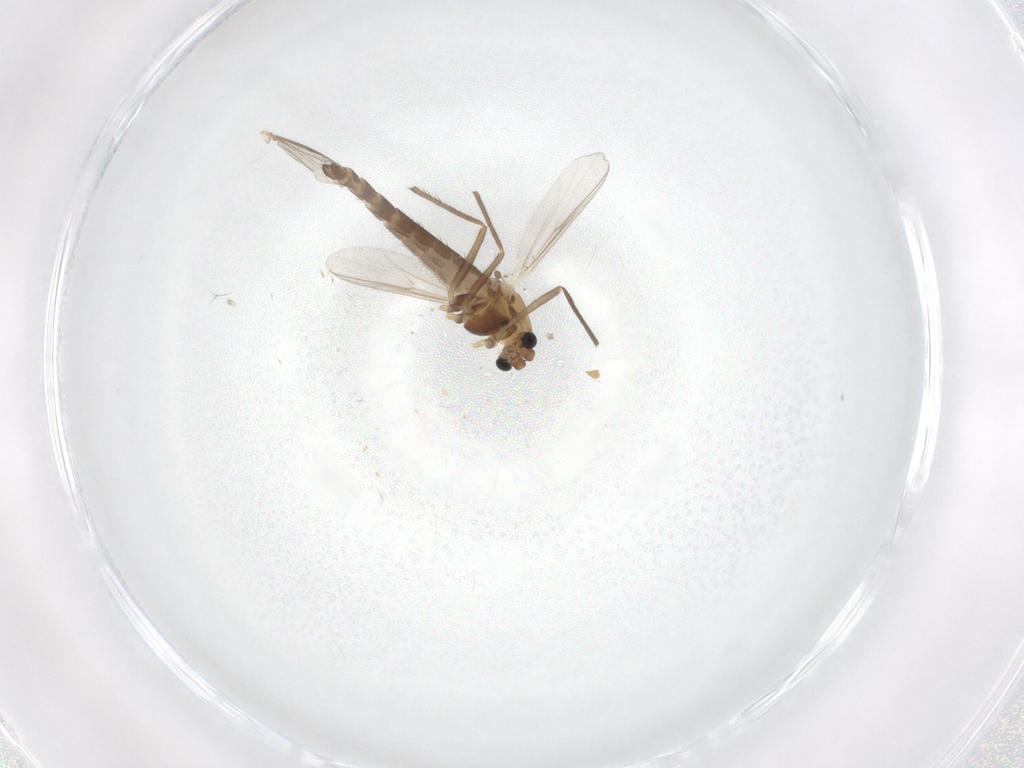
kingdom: Animalia
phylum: Arthropoda
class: Insecta
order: Diptera
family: Chironomidae
